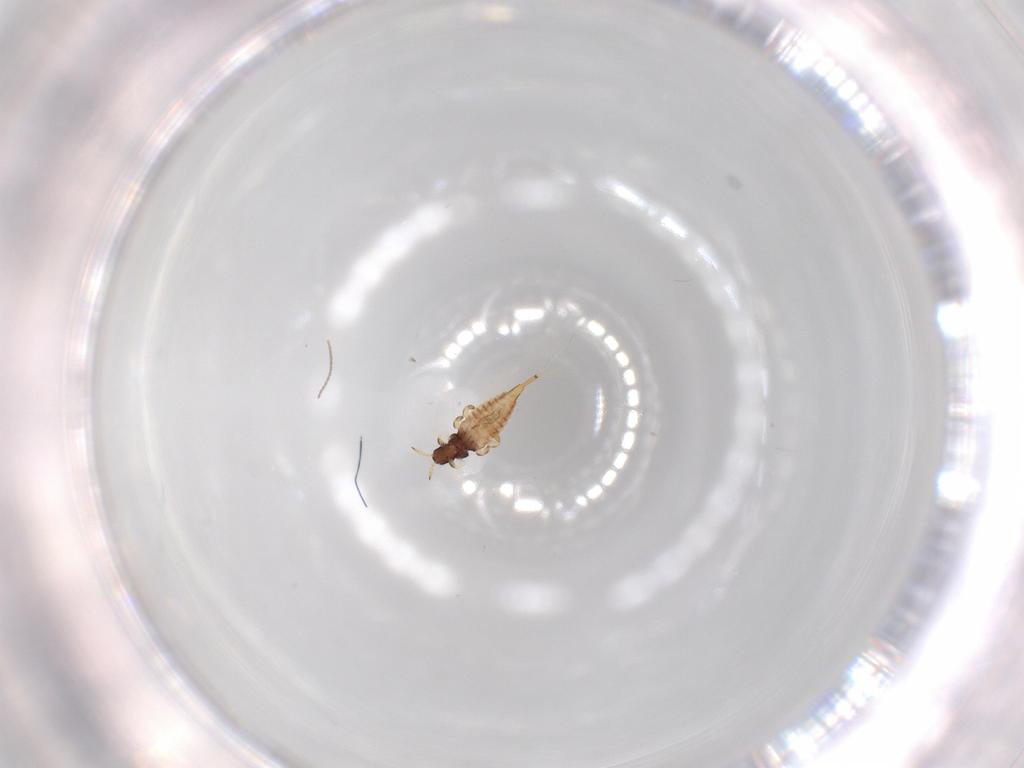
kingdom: Animalia
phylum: Arthropoda
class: Insecta
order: Thysanoptera
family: Phlaeothripidae
